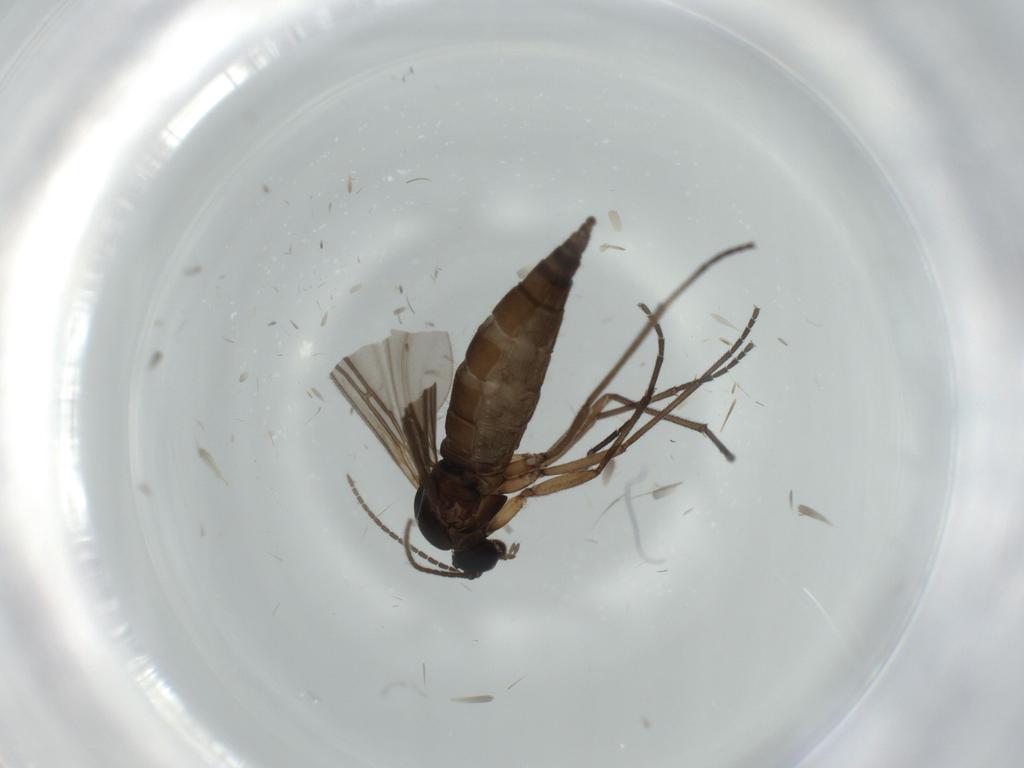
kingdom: Animalia
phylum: Arthropoda
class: Insecta
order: Diptera
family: Sciaridae
